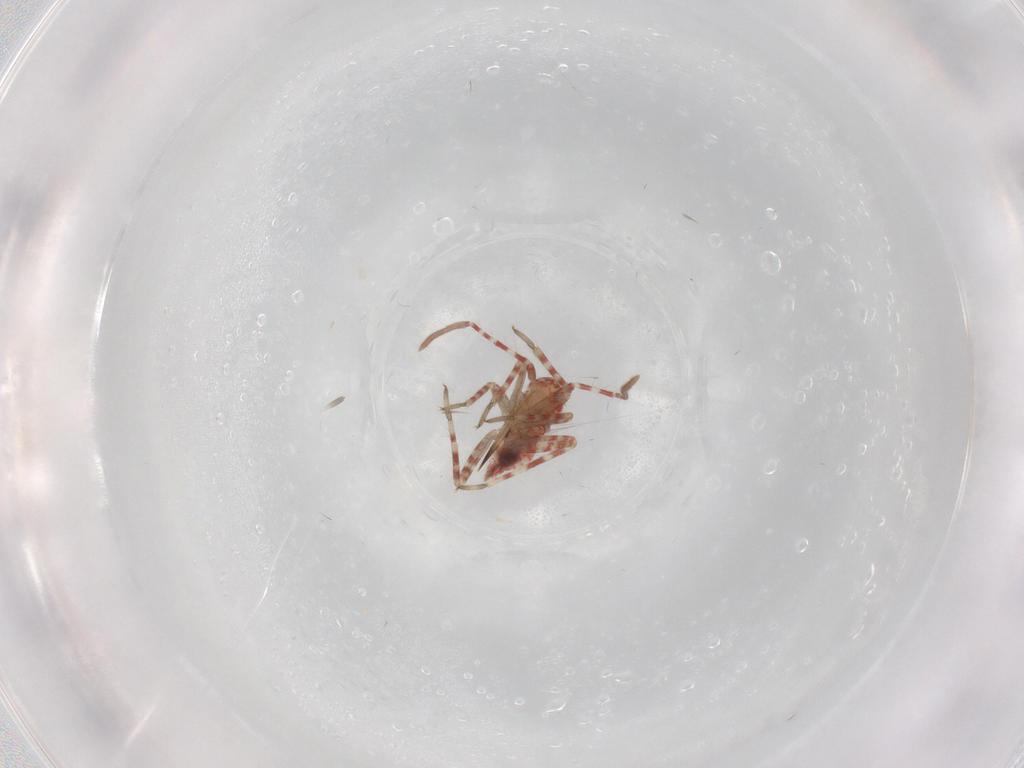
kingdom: Animalia
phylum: Arthropoda
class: Insecta
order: Hemiptera
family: Miridae
